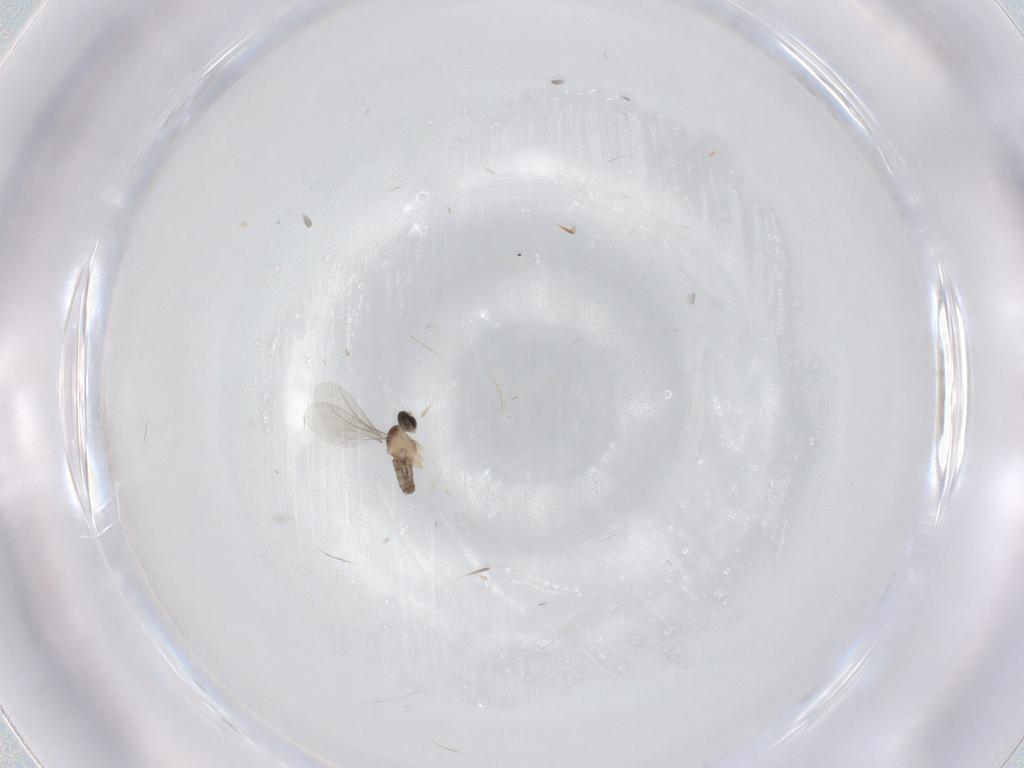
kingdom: Animalia
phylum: Arthropoda
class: Insecta
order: Diptera
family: Cecidomyiidae
